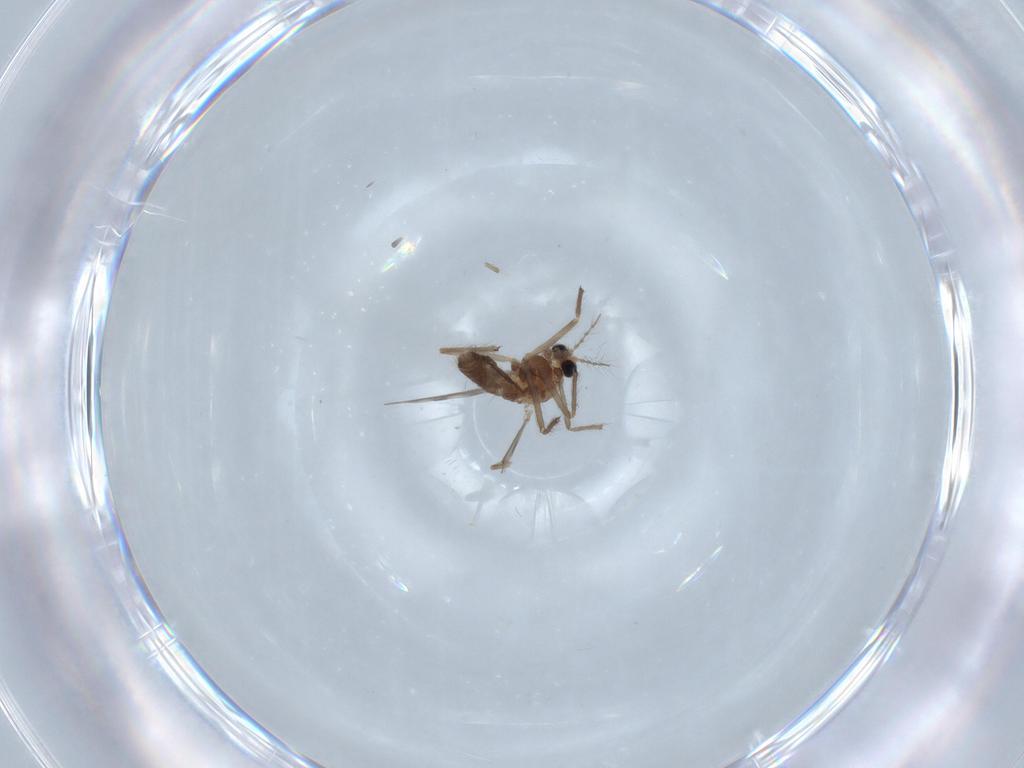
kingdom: Animalia
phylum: Arthropoda
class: Insecta
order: Diptera
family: Chironomidae
